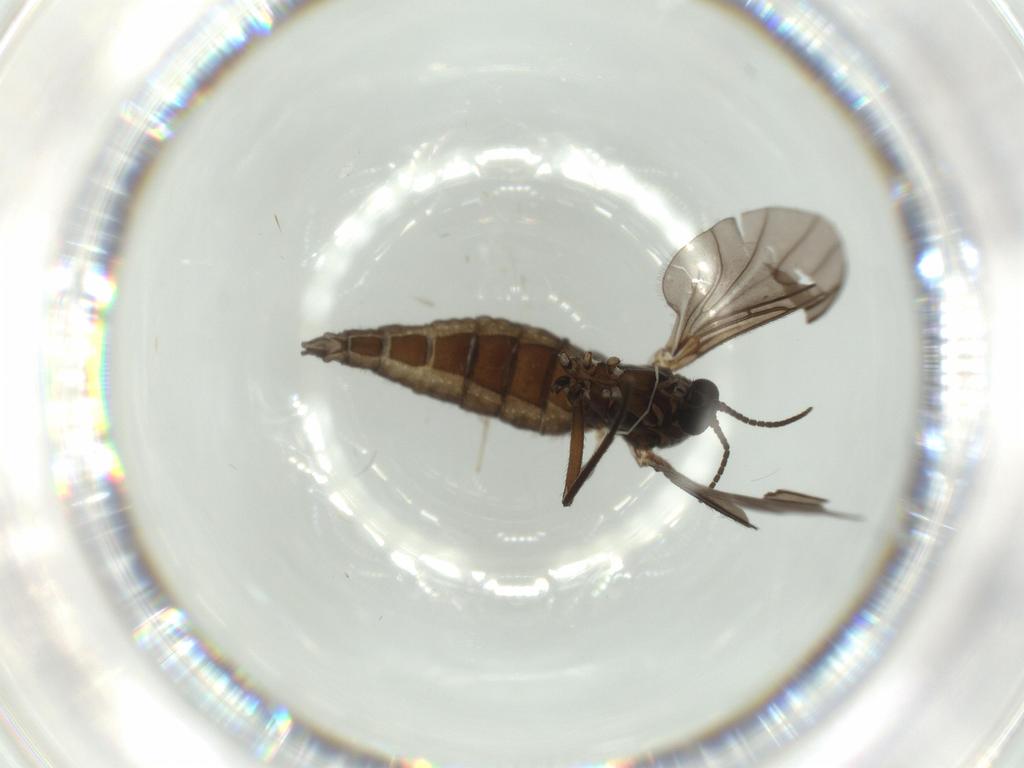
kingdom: Animalia
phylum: Arthropoda
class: Insecta
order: Diptera
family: Sciaridae
